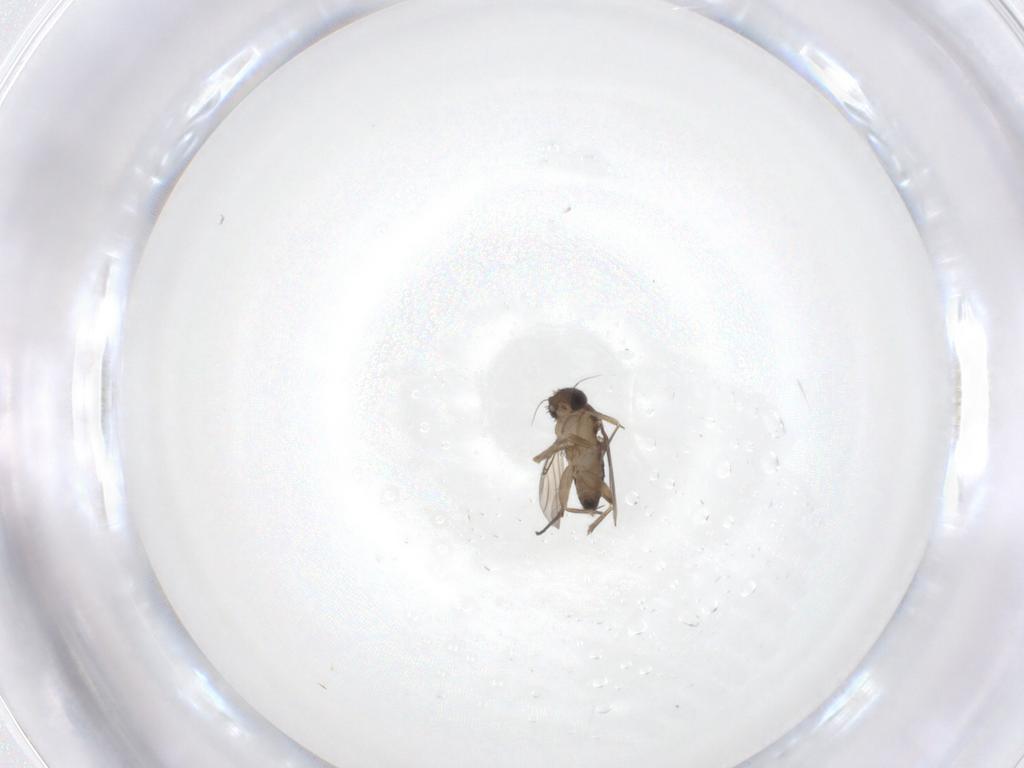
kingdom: Animalia
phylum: Arthropoda
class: Insecta
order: Diptera
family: Phoridae
